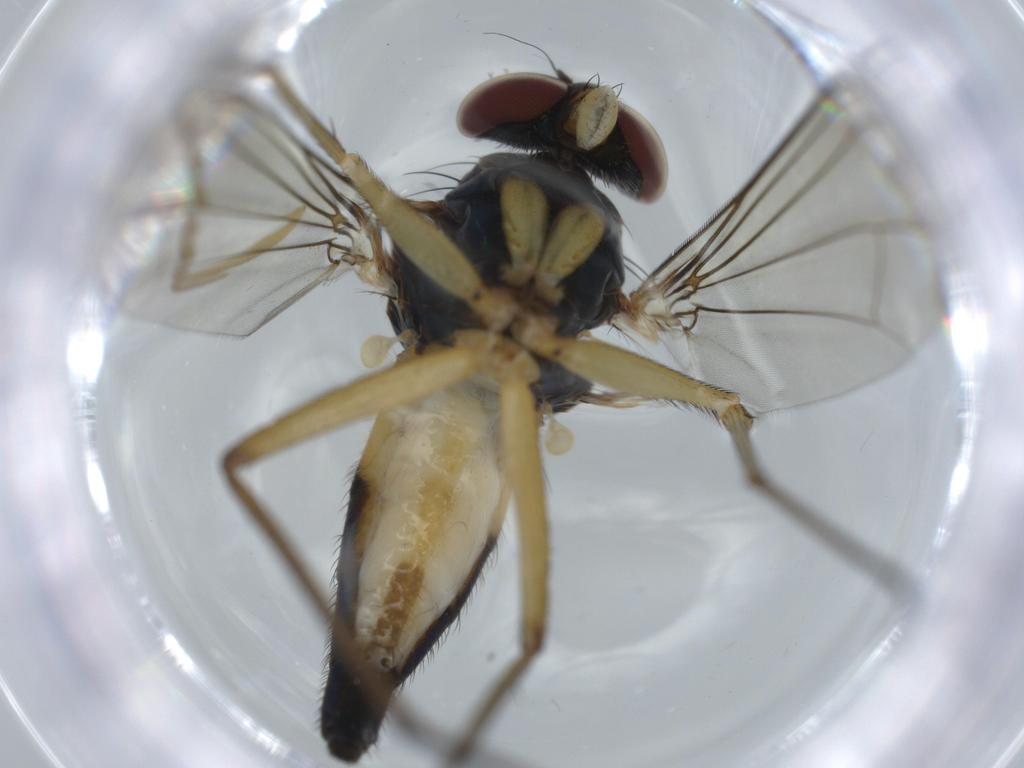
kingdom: Animalia
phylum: Arthropoda
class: Insecta
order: Diptera
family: Dolichopodidae
